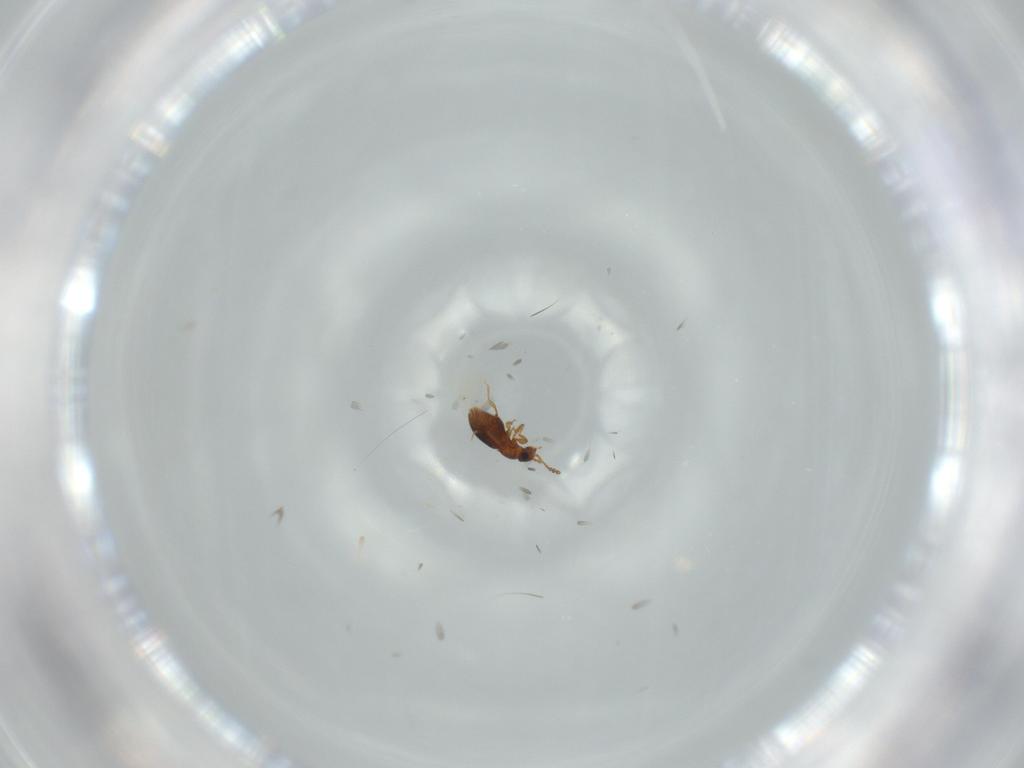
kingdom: Animalia
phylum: Arthropoda
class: Insecta
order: Coleoptera
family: Staphylinidae
